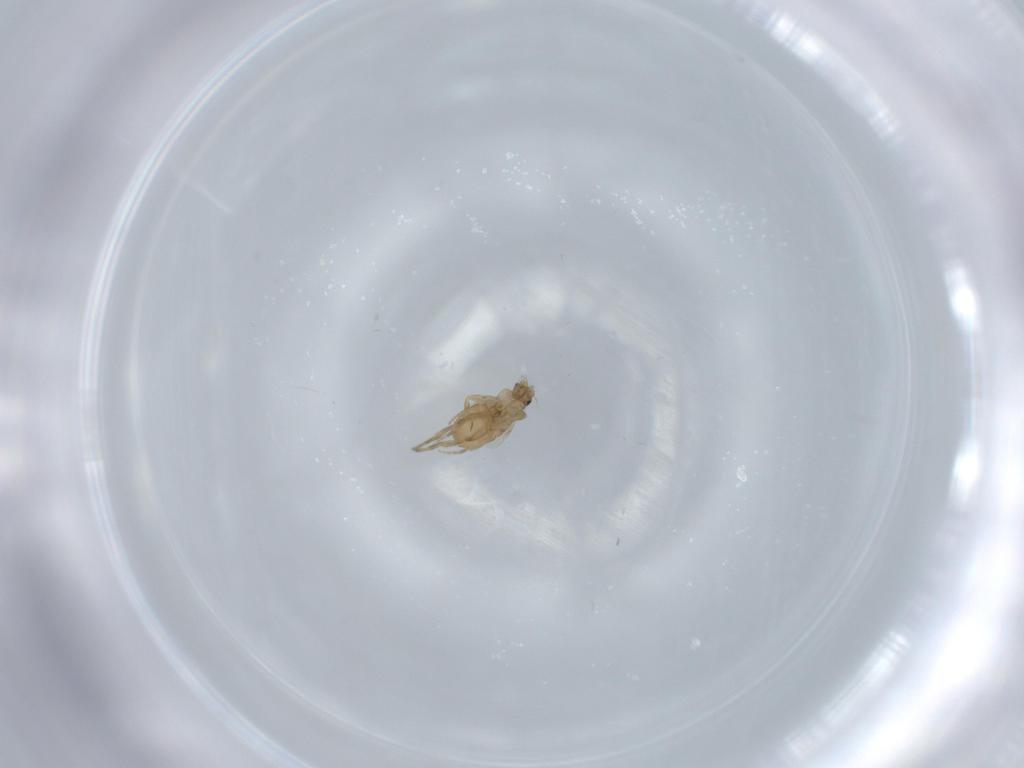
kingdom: Animalia
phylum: Arthropoda
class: Insecta
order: Diptera
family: Phoridae
